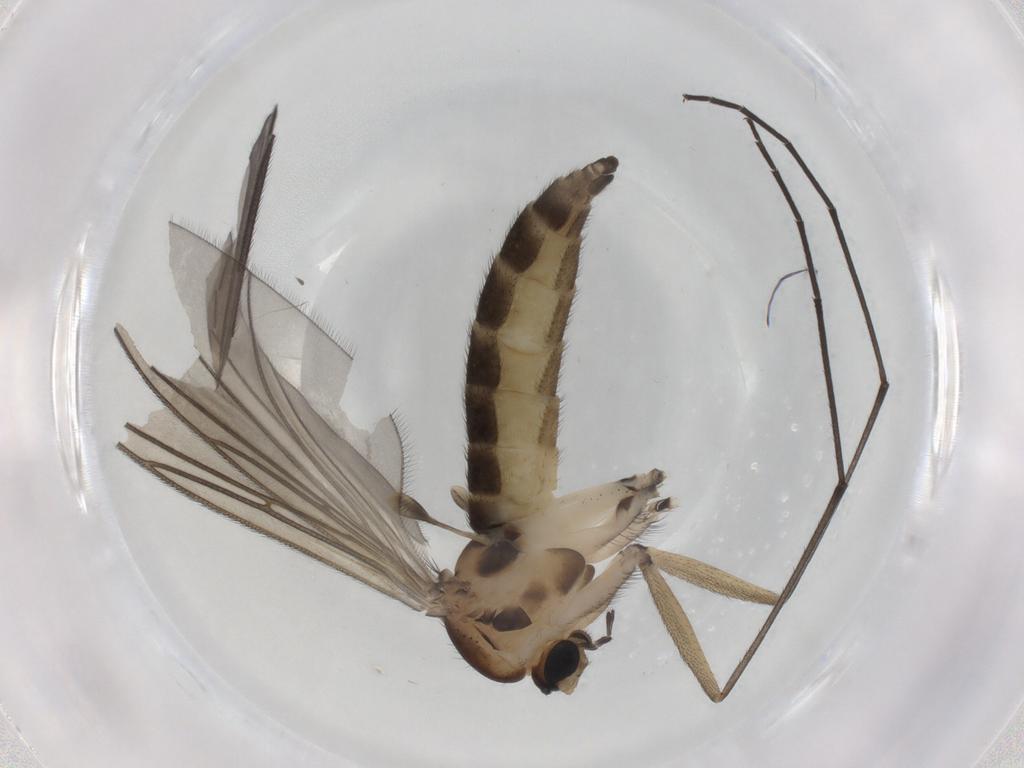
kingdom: Animalia
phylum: Arthropoda
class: Insecta
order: Diptera
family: Sciaridae
